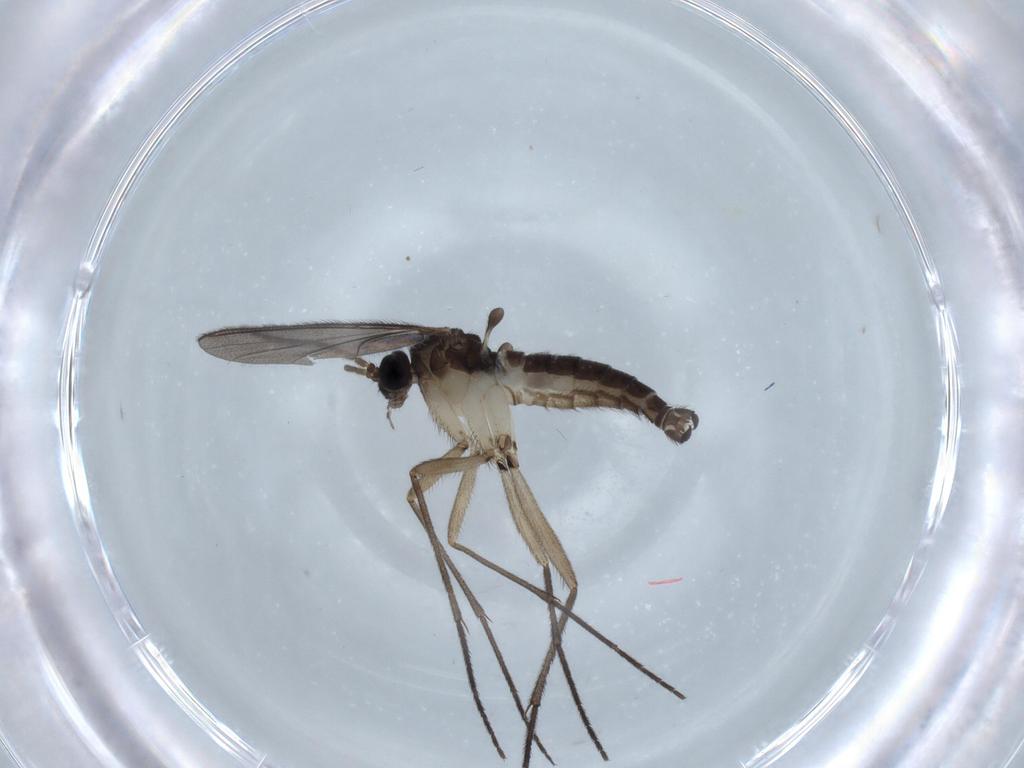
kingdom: Animalia
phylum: Arthropoda
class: Insecta
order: Diptera
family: Sciaridae
